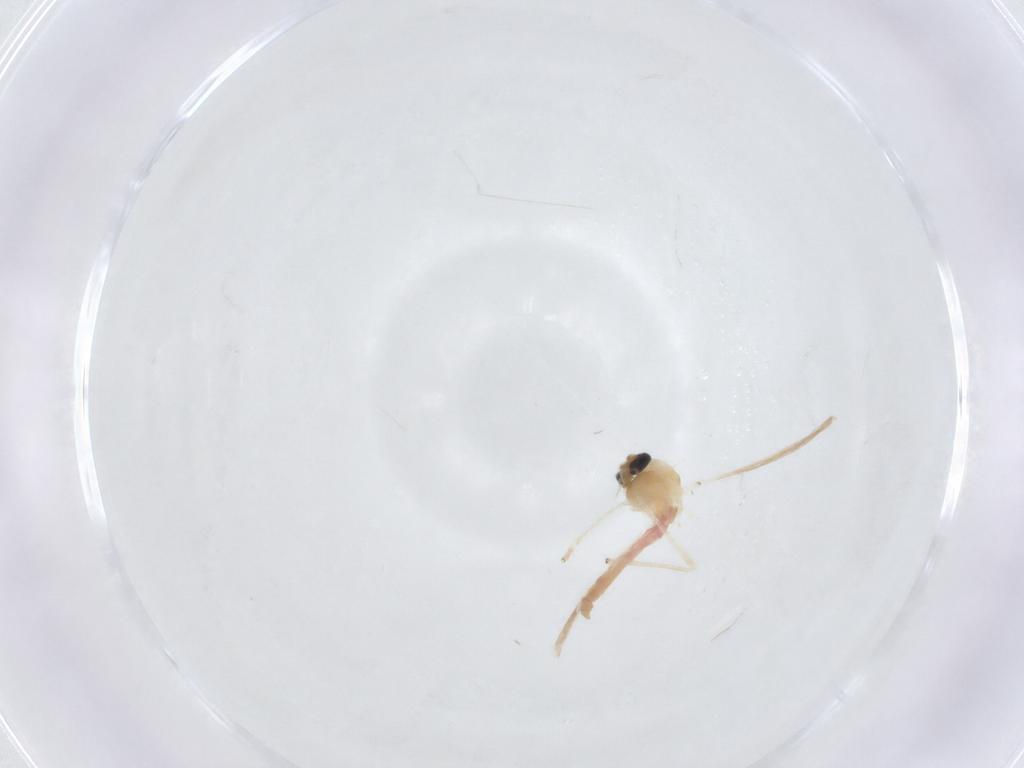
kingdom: Animalia
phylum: Arthropoda
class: Insecta
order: Diptera
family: Chironomidae
